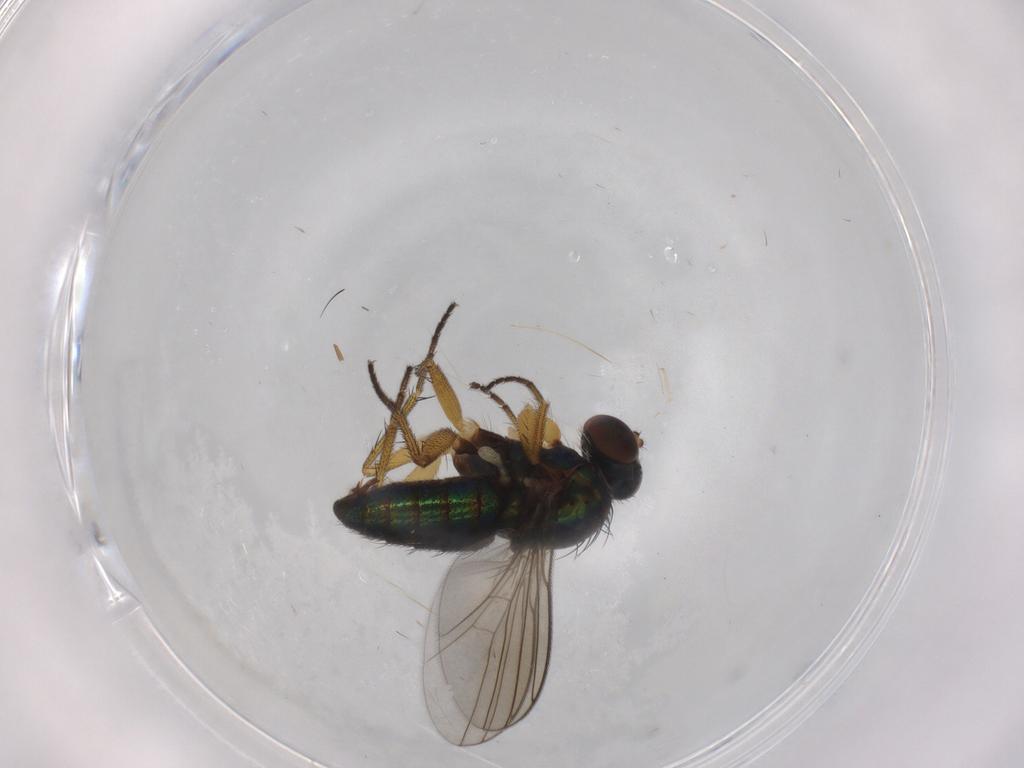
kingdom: Animalia
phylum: Arthropoda
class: Insecta
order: Diptera
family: Dolichopodidae
